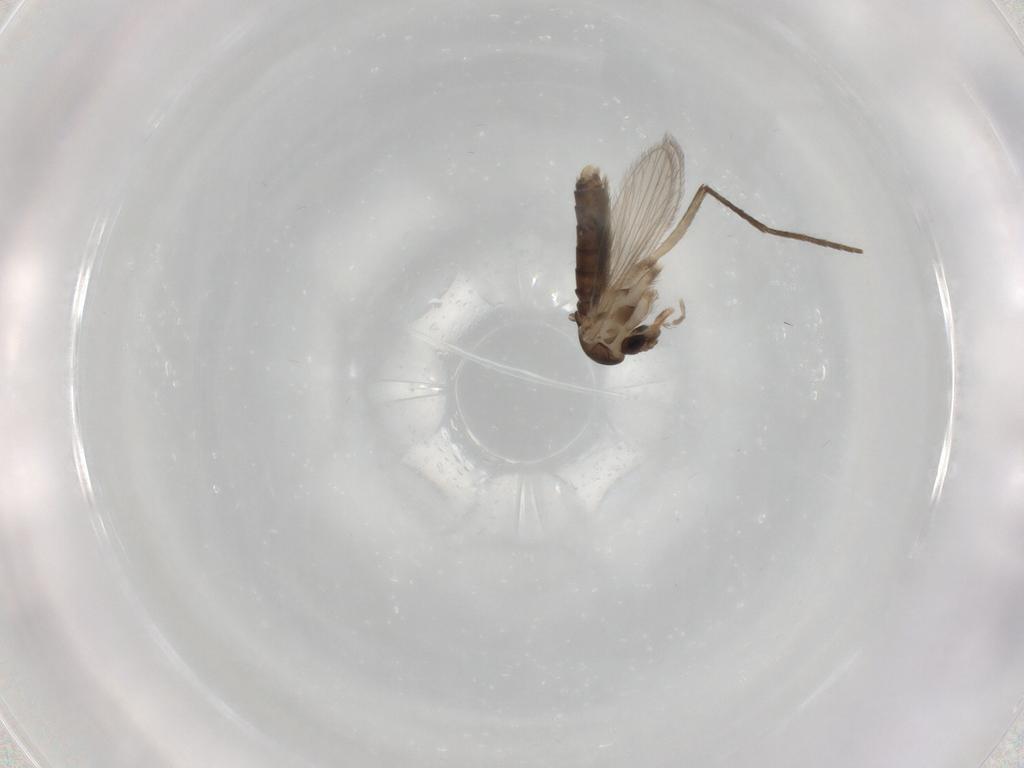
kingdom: Animalia
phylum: Arthropoda
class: Insecta
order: Diptera
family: Psychodidae
